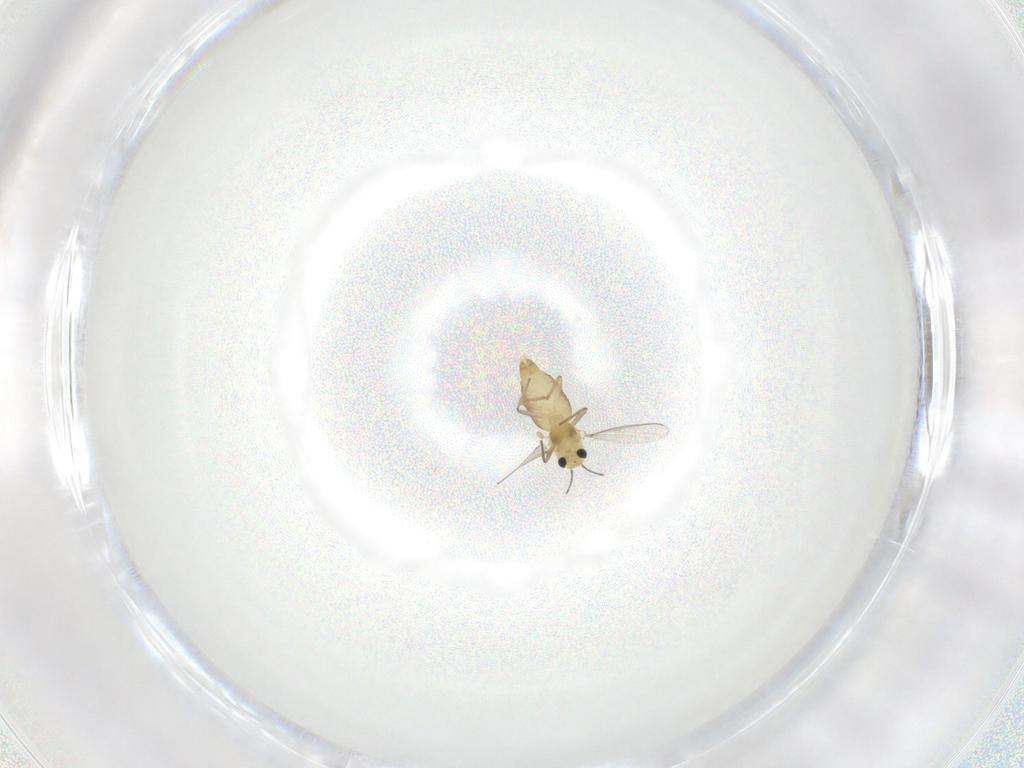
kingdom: Animalia
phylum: Arthropoda
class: Insecta
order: Diptera
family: Chironomidae
